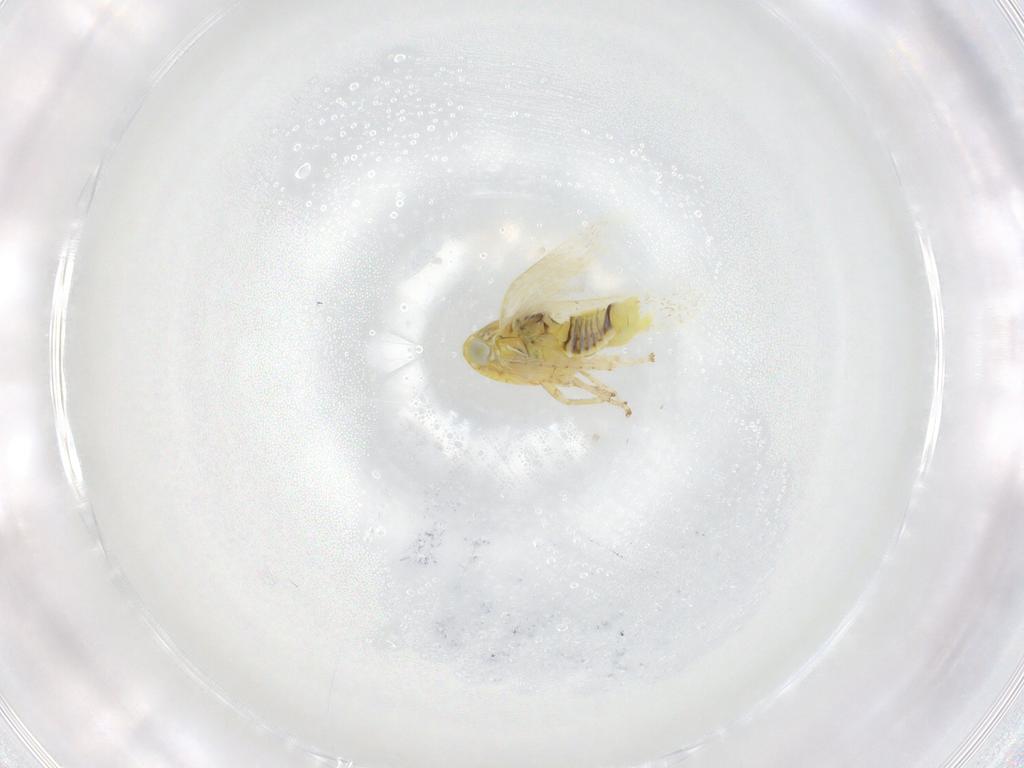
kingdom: Animalia
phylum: Arthropoda
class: Insecta
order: Hemiptera
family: Cicadellidae
